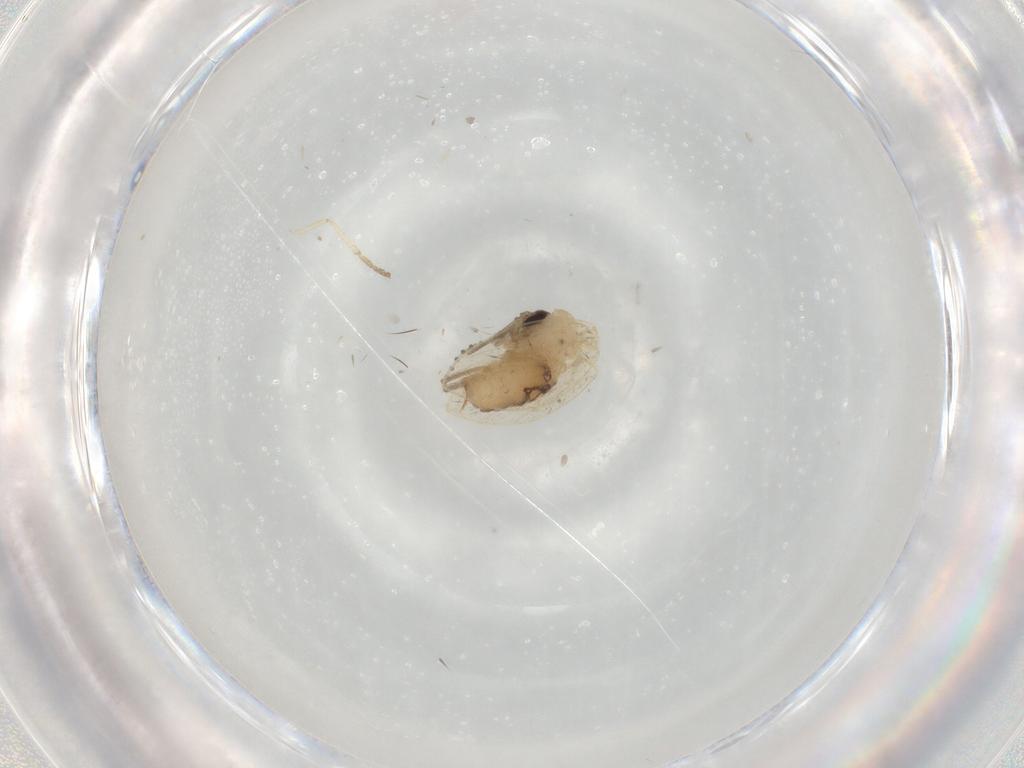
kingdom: Animalia
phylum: Arthropoda
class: Insecta
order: Diptera
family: Psychodidae
